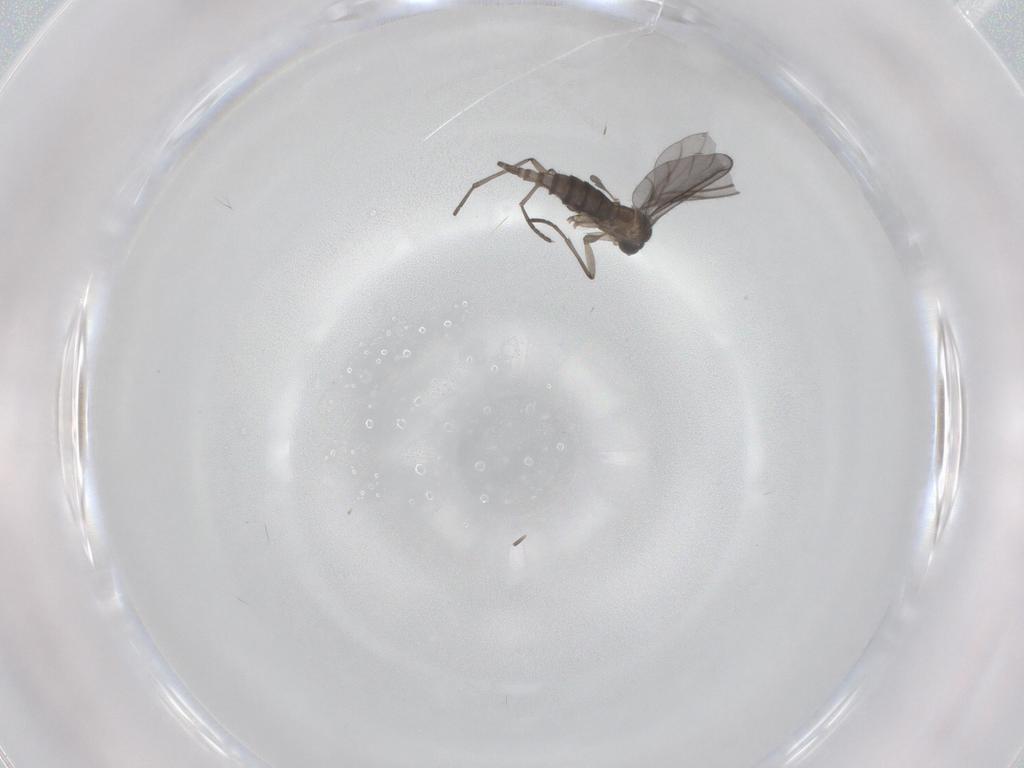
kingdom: Animalia
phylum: Arthropoda
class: Insecta
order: Diptera
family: Sciaridae
